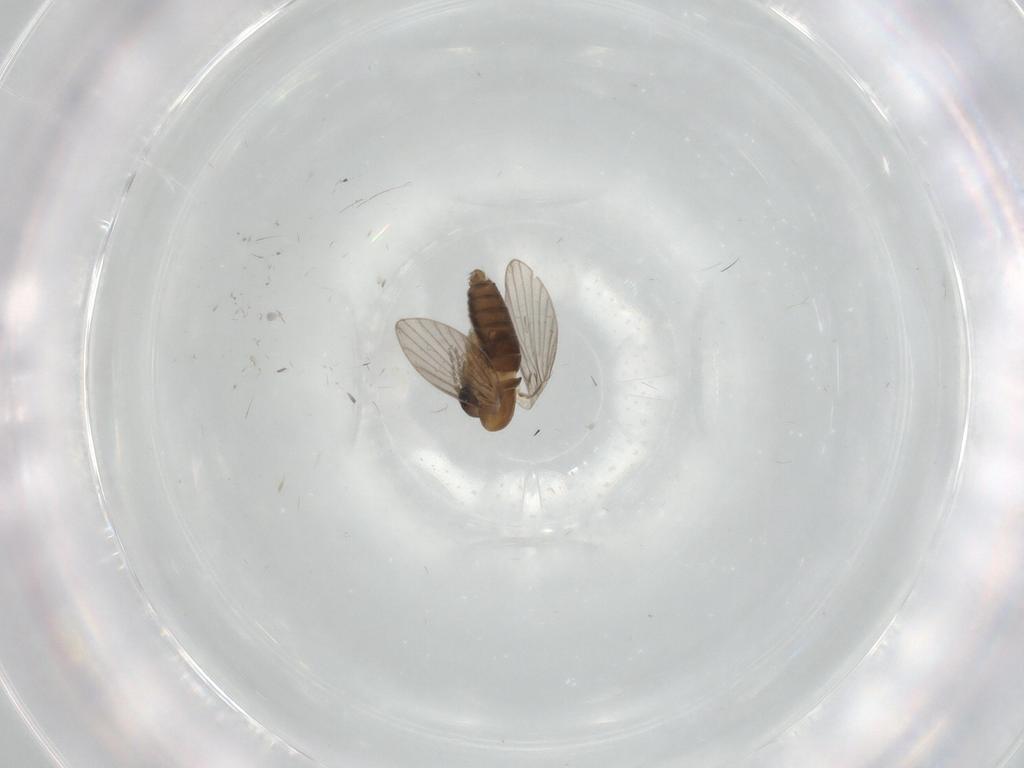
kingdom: Animalia
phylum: Arthropoda
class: Insecta
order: Diptera
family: Psychodidae
